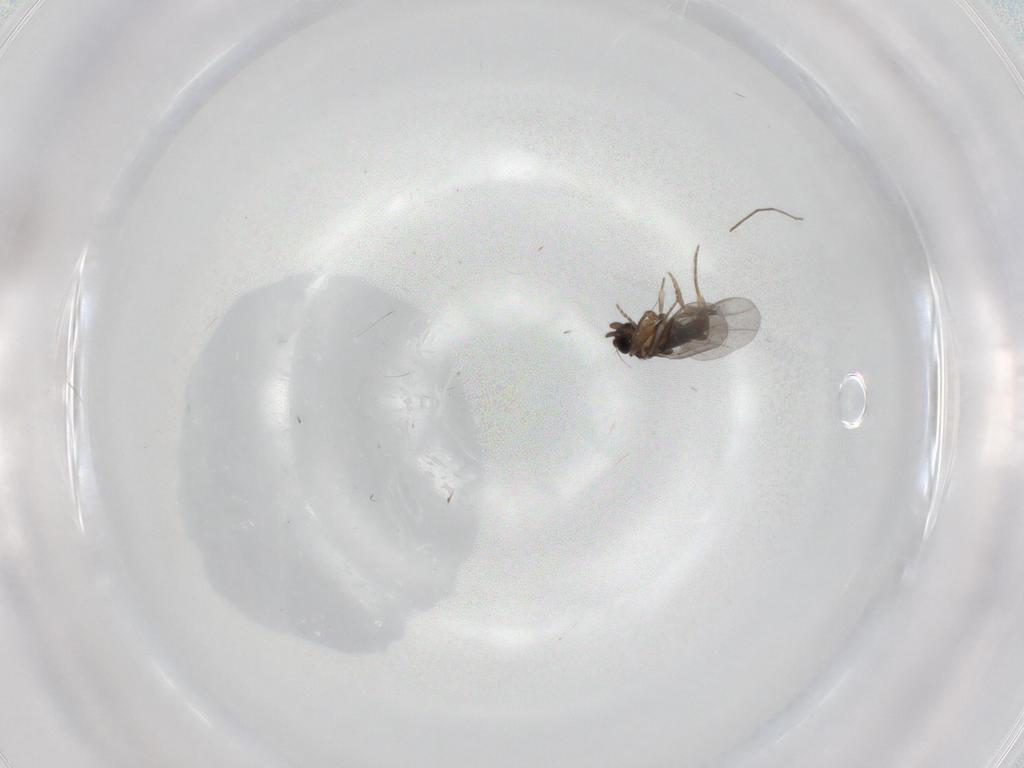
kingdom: Animalia
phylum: Arthropoda
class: Insecta
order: Diptera
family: Chironomidae
